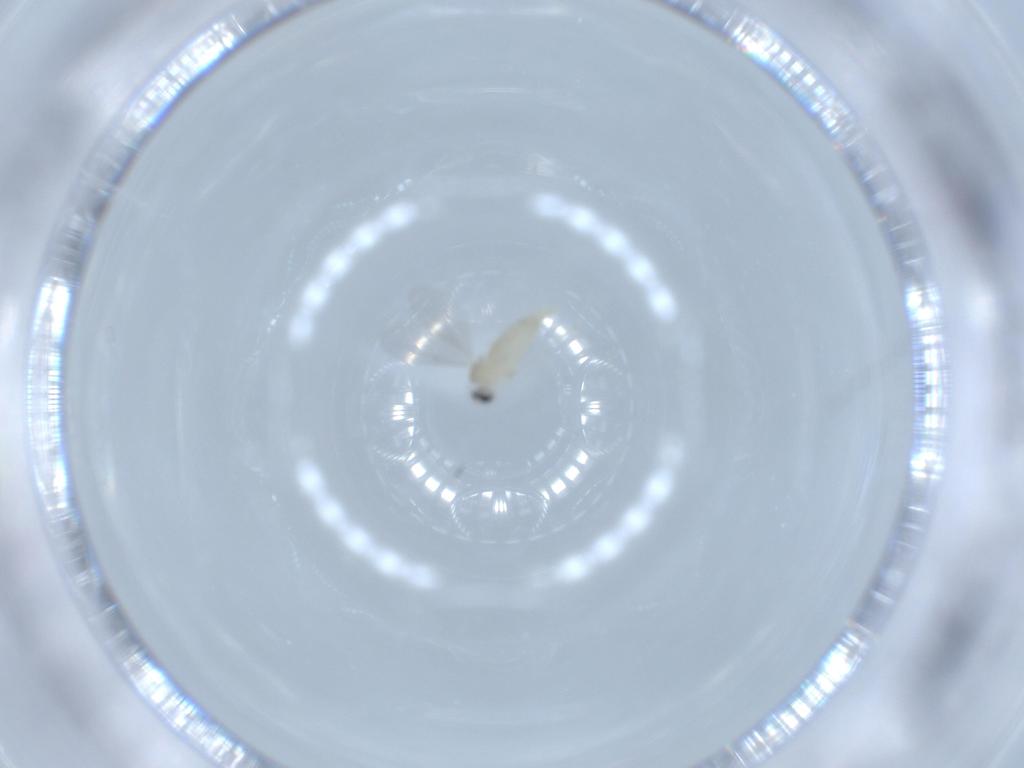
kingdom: Animalia
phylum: Arthropoda
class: Insecta
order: Diptera
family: Cecidomyiidae
